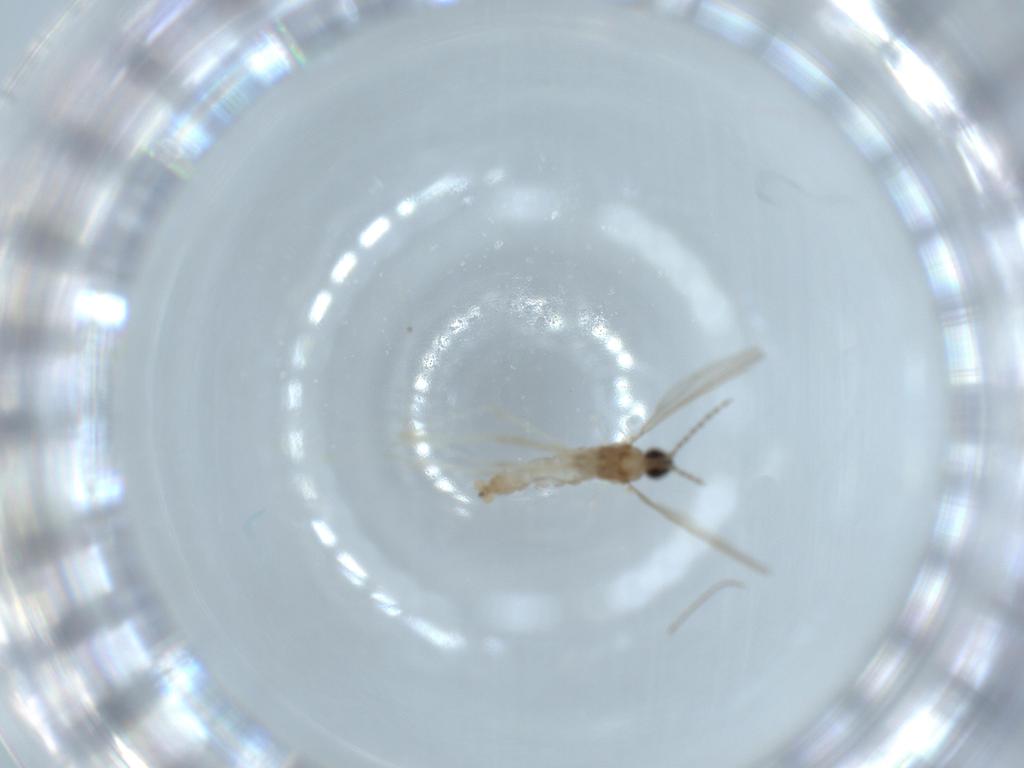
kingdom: Animalia
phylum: Arthropoda
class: Insecta
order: Diptera
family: Cecidomyiidae
